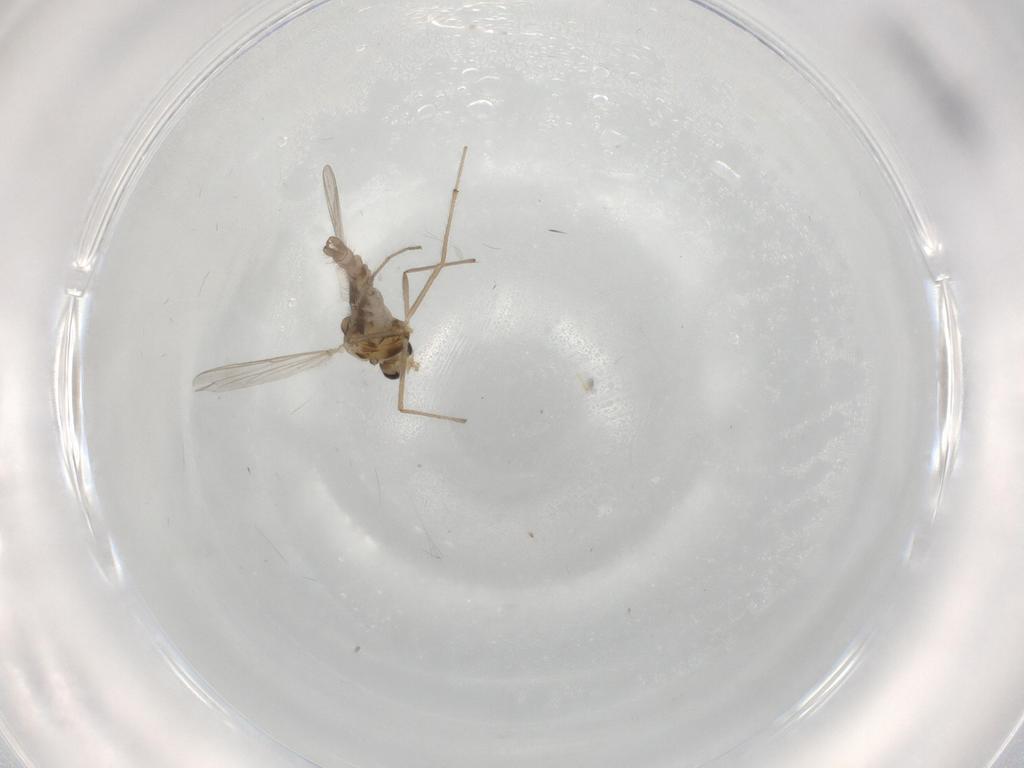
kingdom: Animalia
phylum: Arthropoda
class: Insecta
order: Diptera
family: Chironomidae
